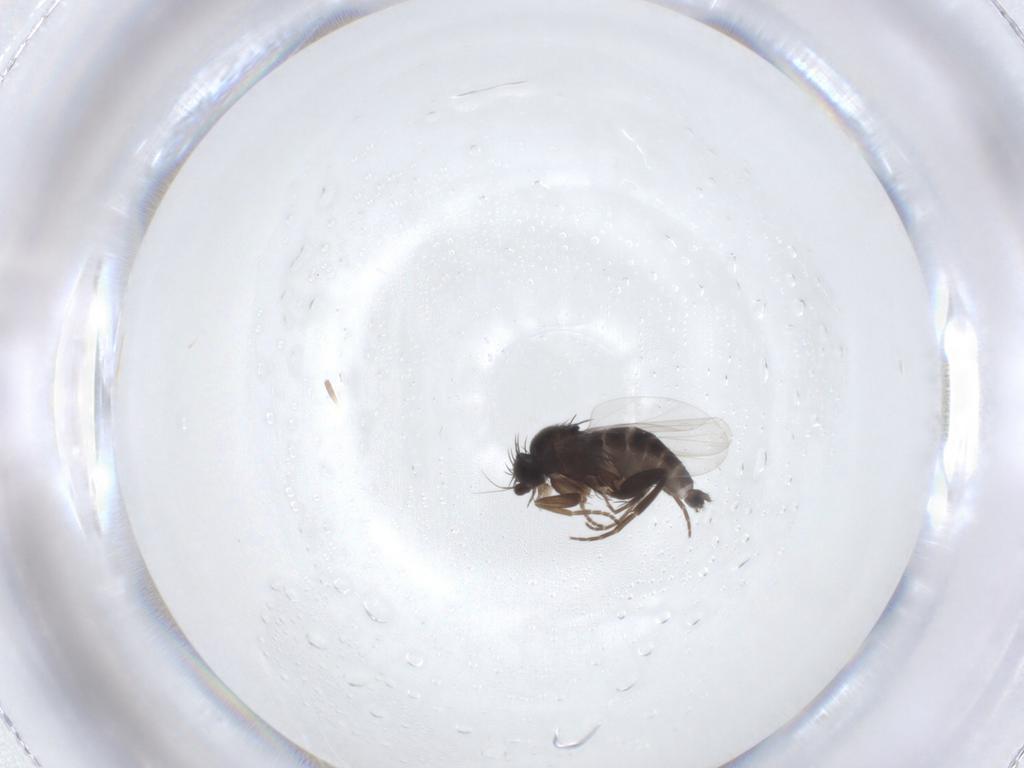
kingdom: Animalia
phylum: Arthropoda
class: Insecta
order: Diptera
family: Phoridae
